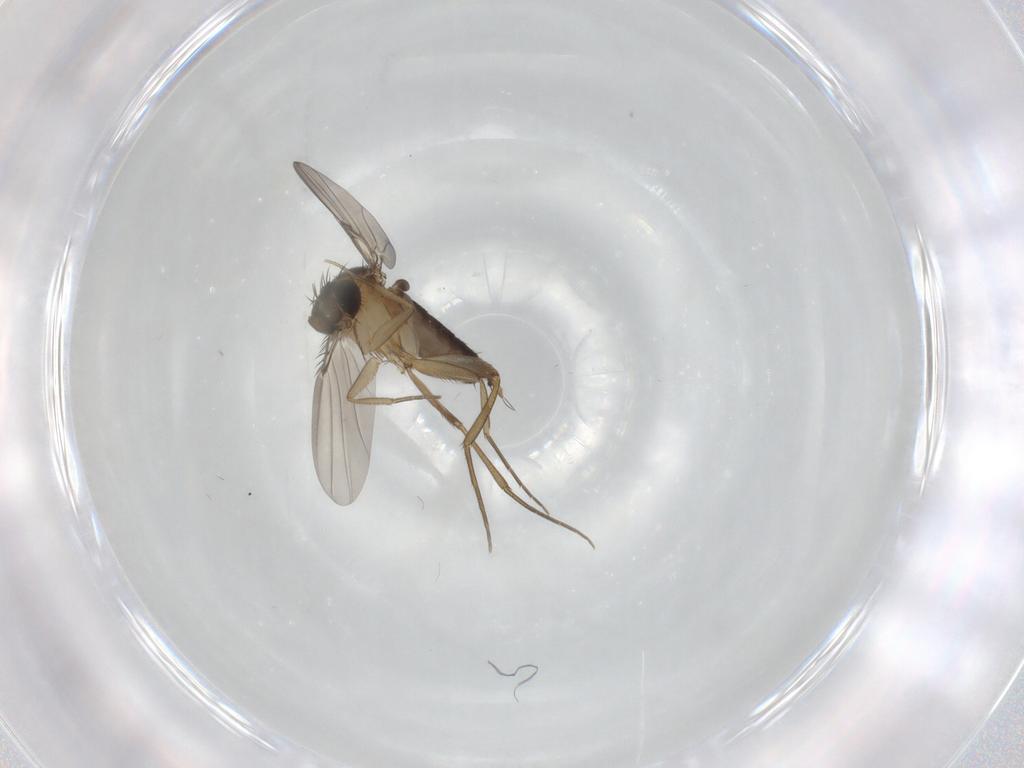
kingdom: Animalia
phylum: Arthropoda
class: Insecta
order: Diptera
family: Phoridae
